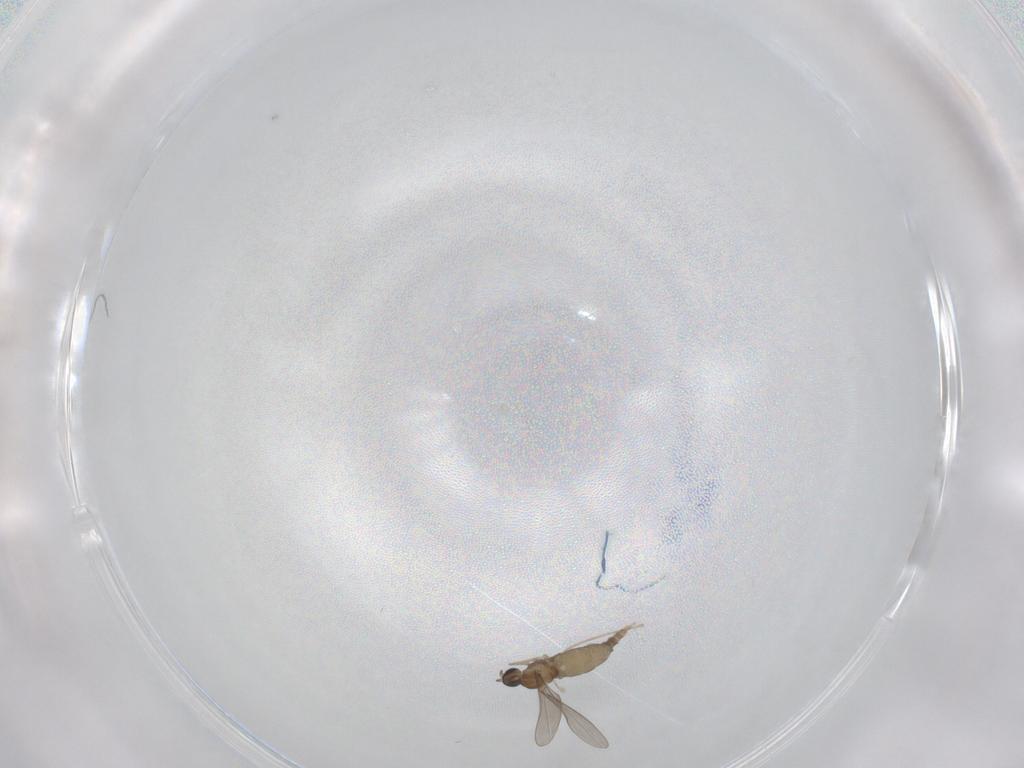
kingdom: Animalia
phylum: Arthropoda
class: Insecta
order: Diptera
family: Cecidomyiidae
